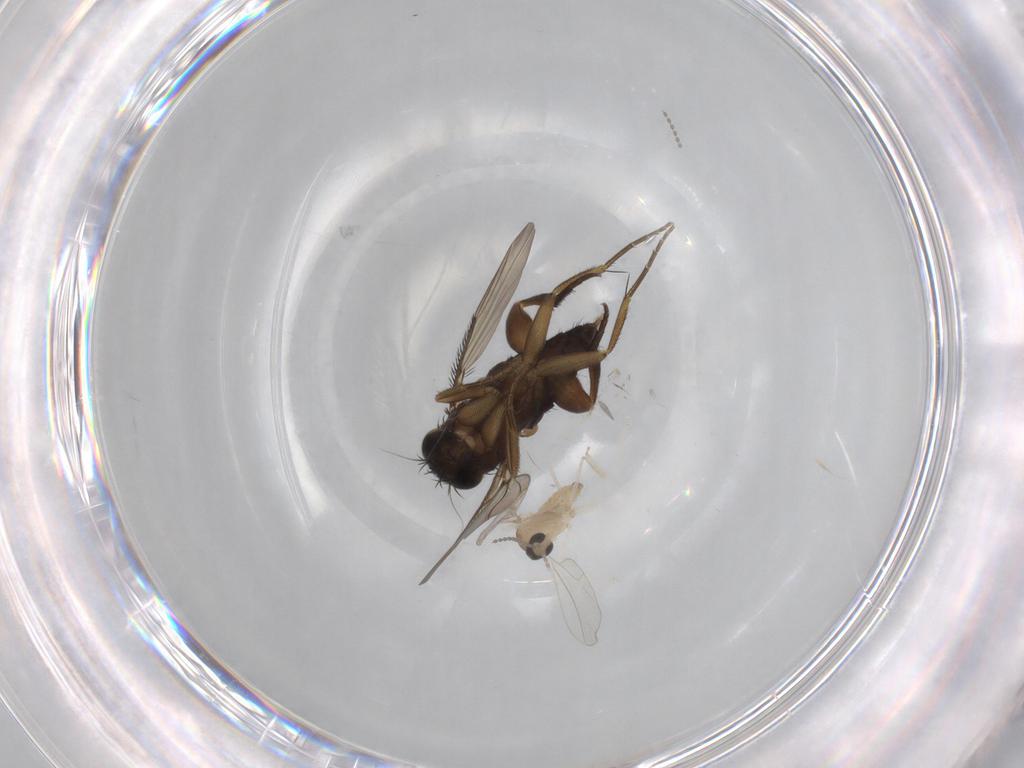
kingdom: Animalia
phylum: Arthropoda
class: Insecta
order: Diptera
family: Phoridae
